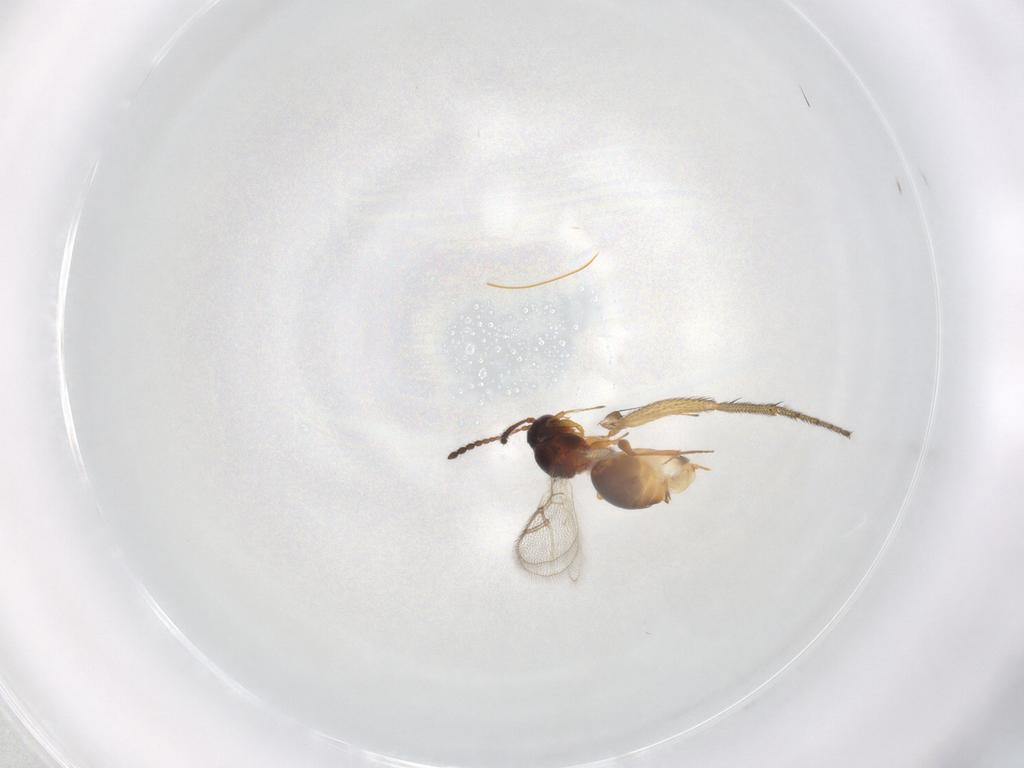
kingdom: Animalia
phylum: Arthropoda
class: Insecta
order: Hymenoptera
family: Figitidae
